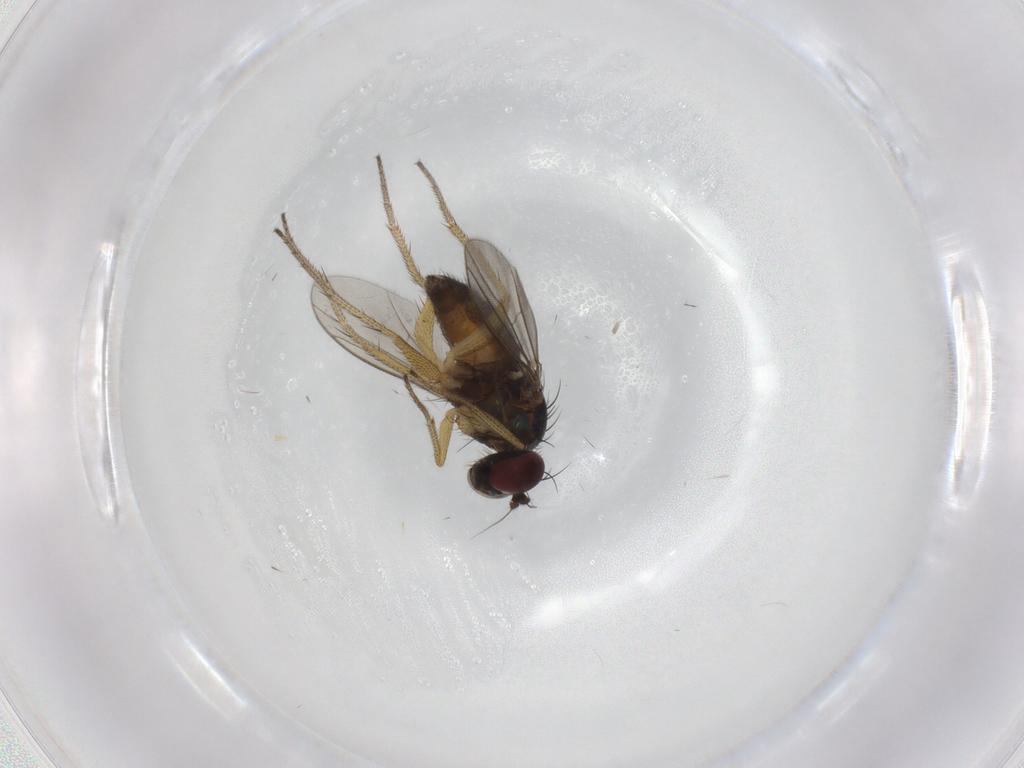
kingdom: Animalia
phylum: Arthropoda
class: Insecta
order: Diptera
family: Chironomidae
